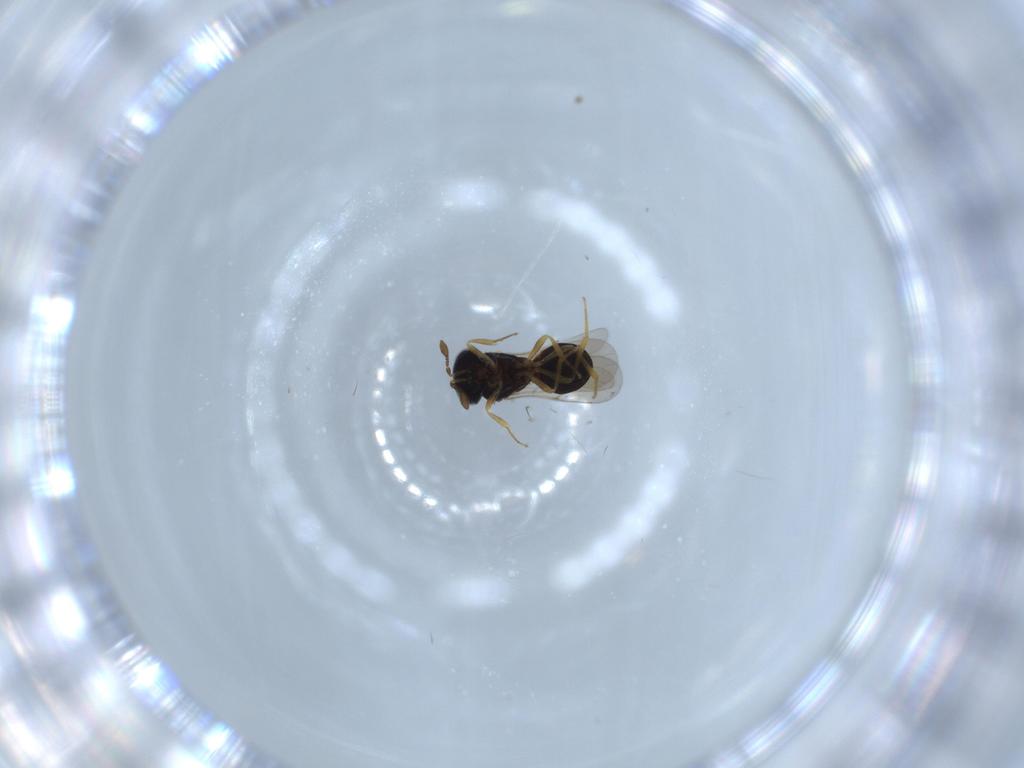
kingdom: Animalia
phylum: Arthropoda
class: Insecta
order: Hymenoptera
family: Scelionidae
